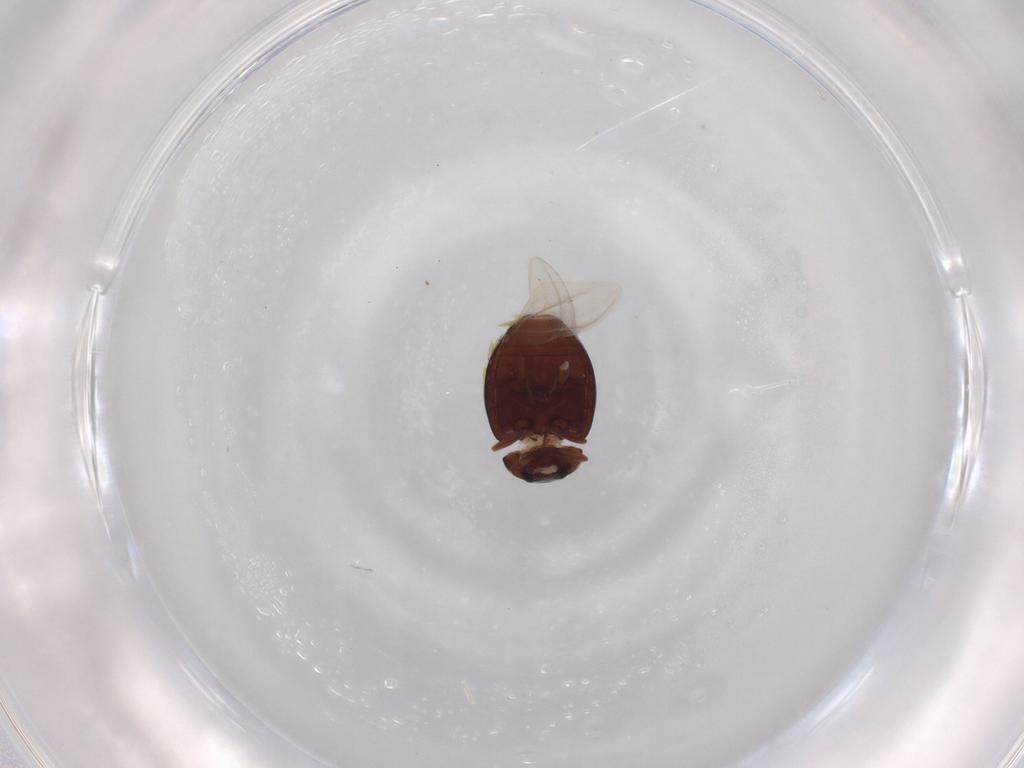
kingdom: Animalia
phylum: Arthropoda
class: Insecta
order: Coleoptera
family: Coccinellidae
